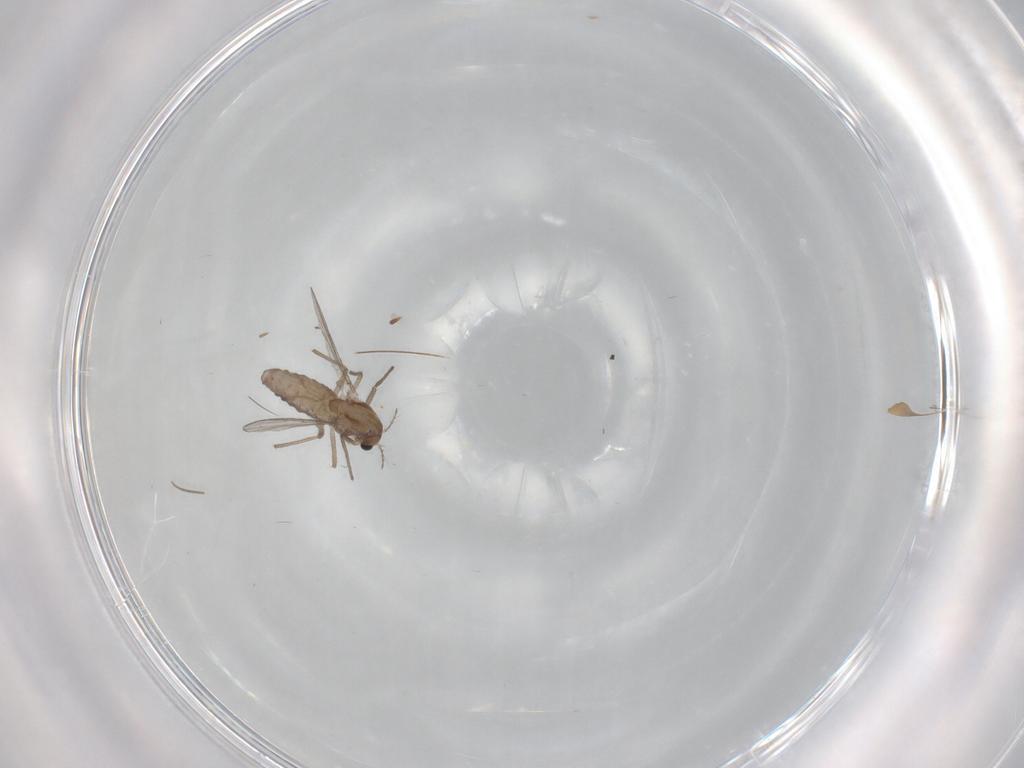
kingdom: Animalia
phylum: Arthropoda
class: Insecta
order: Diptera
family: Chironomidae
